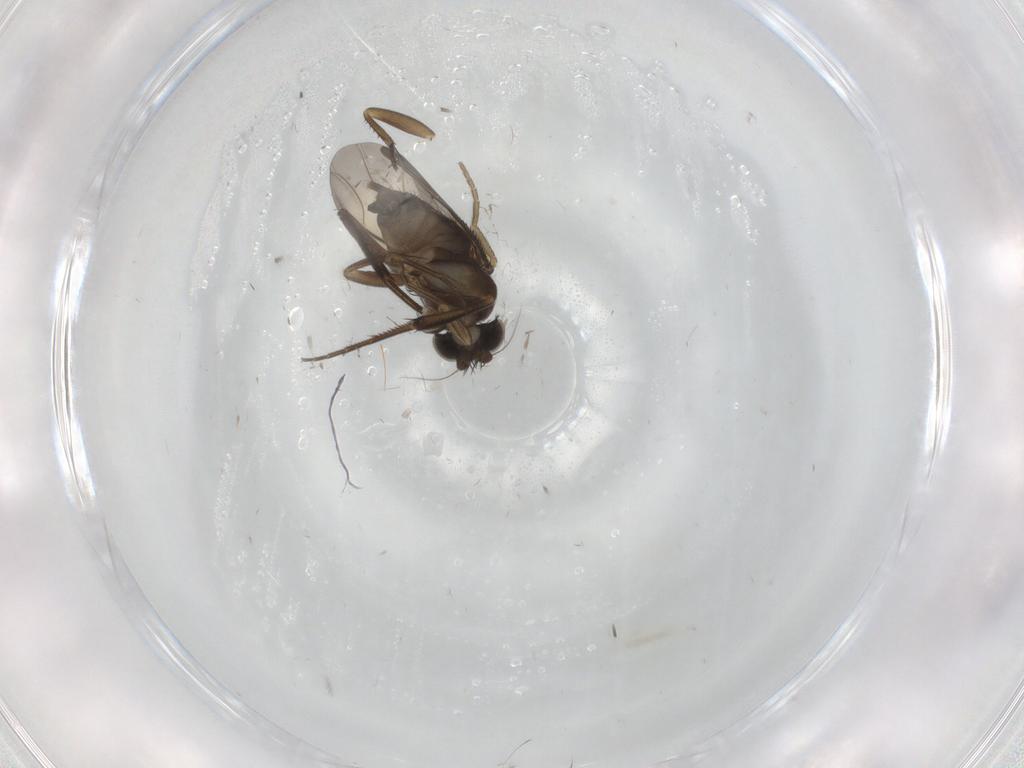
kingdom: Animalia
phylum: Arthropoda
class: Insecta
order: Diptera
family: Phoridae
